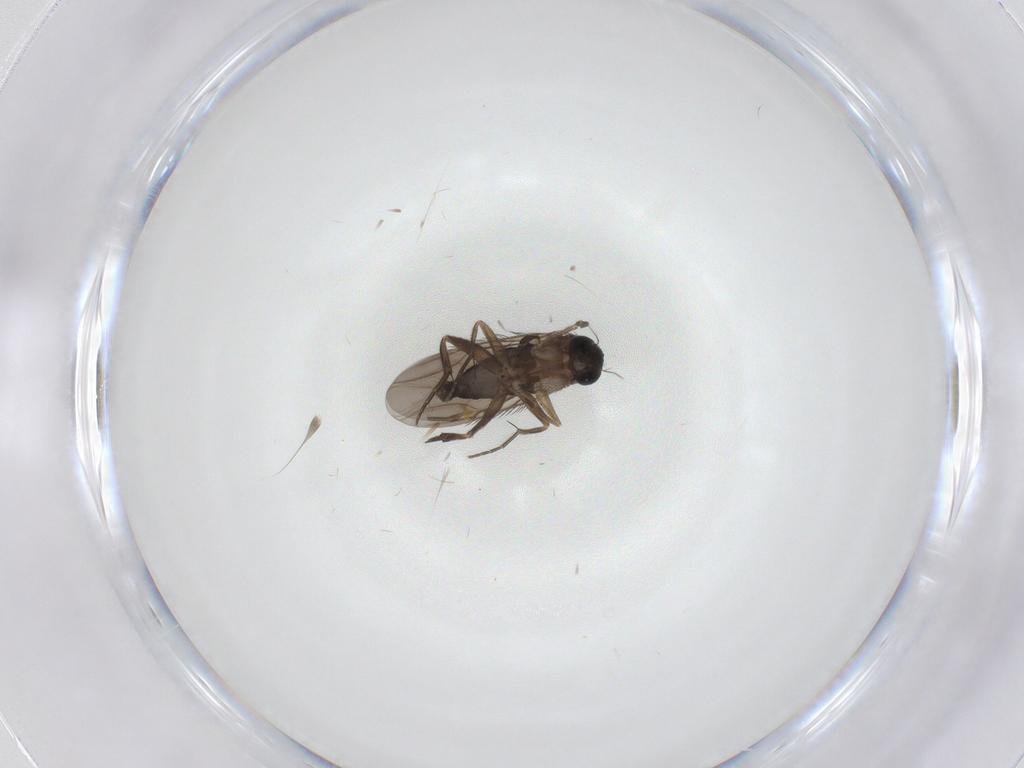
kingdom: Animalia
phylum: Arthropoda
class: Insecta
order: Diptera
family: Phoridae
